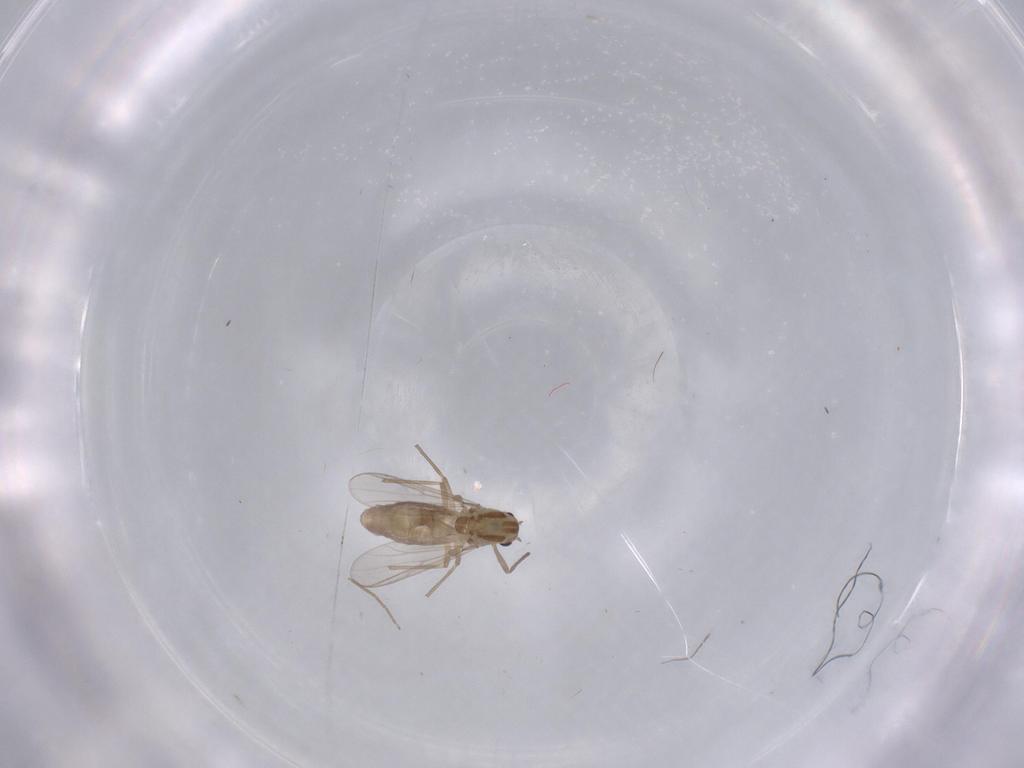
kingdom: Animalia
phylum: Arthropoda
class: Insecta
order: Diptera
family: Chironomidae
